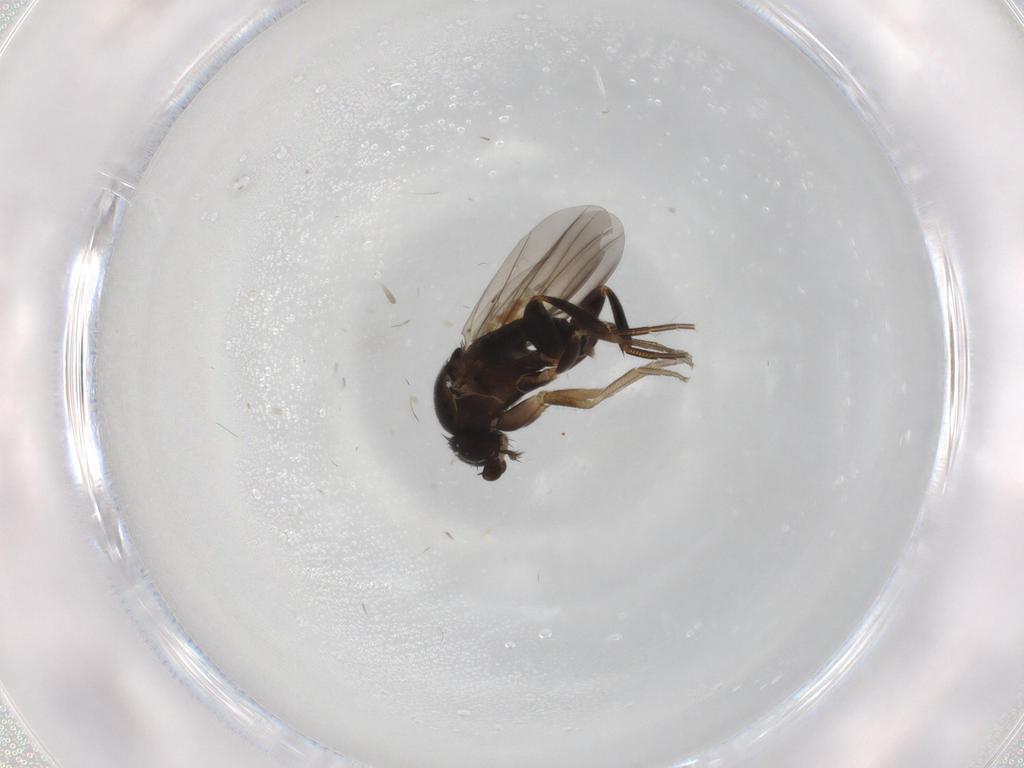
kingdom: Animalia
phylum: Arthropoda
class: Insecta
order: Diptera
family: Phoridae
